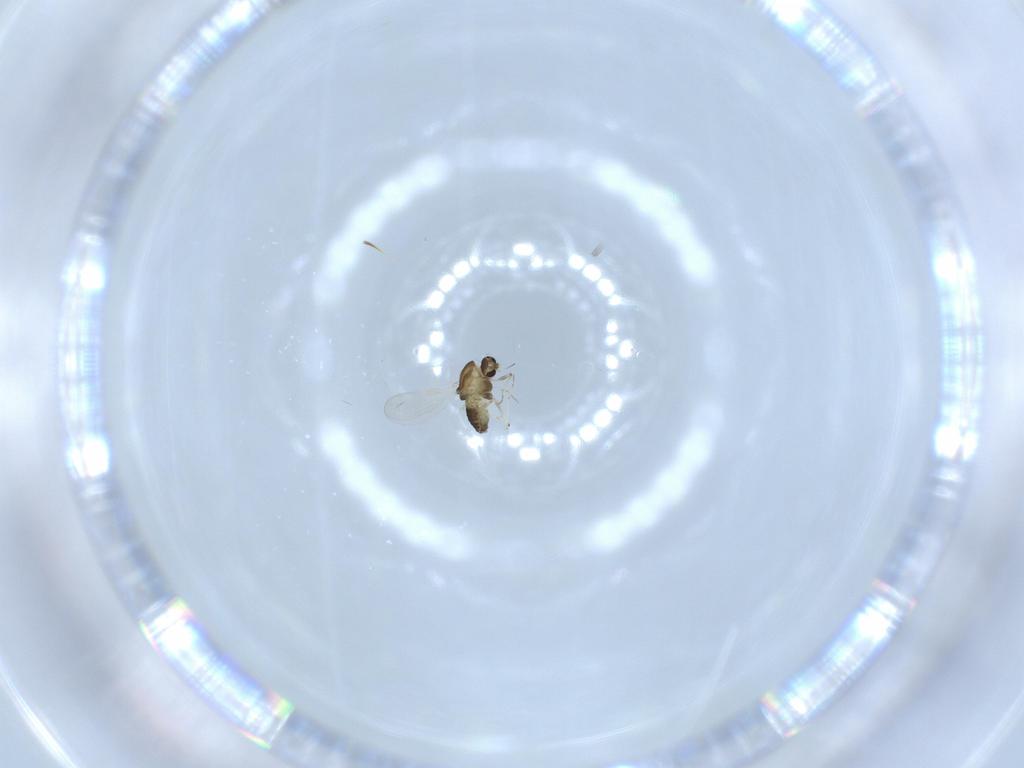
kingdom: Animalia
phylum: Arthropoda
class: Insecta
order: Diptera
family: Chironomidae
